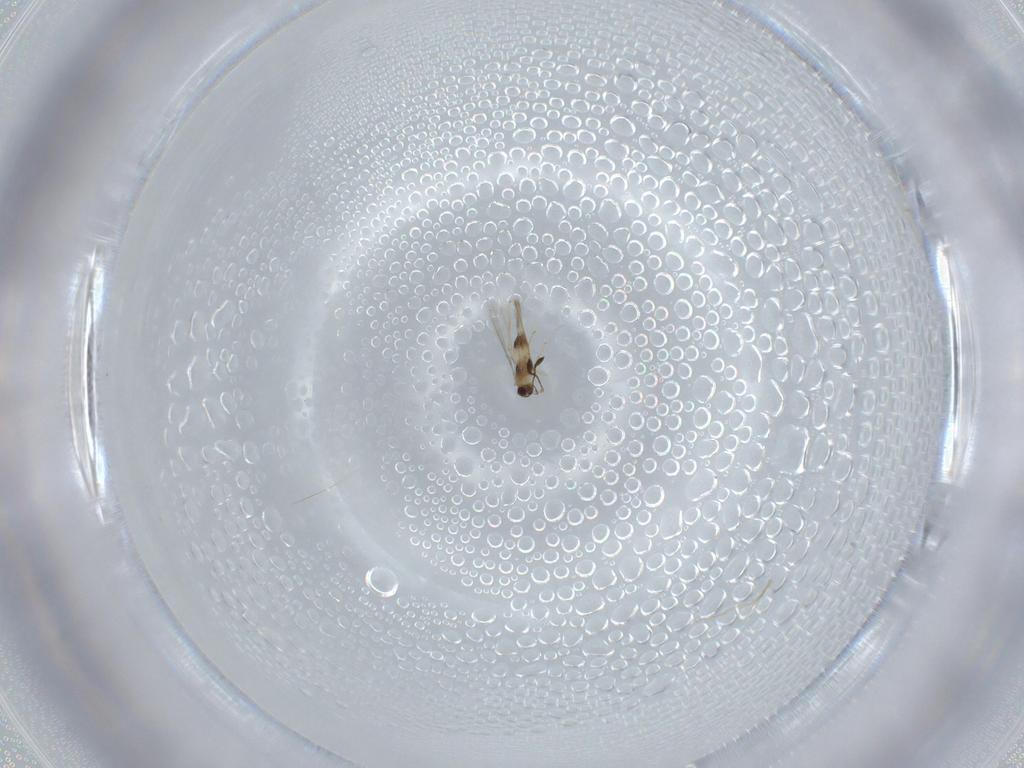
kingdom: Animalia
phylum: Arthropoda
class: Insecta
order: Hymenoptera
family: Mymaridae
